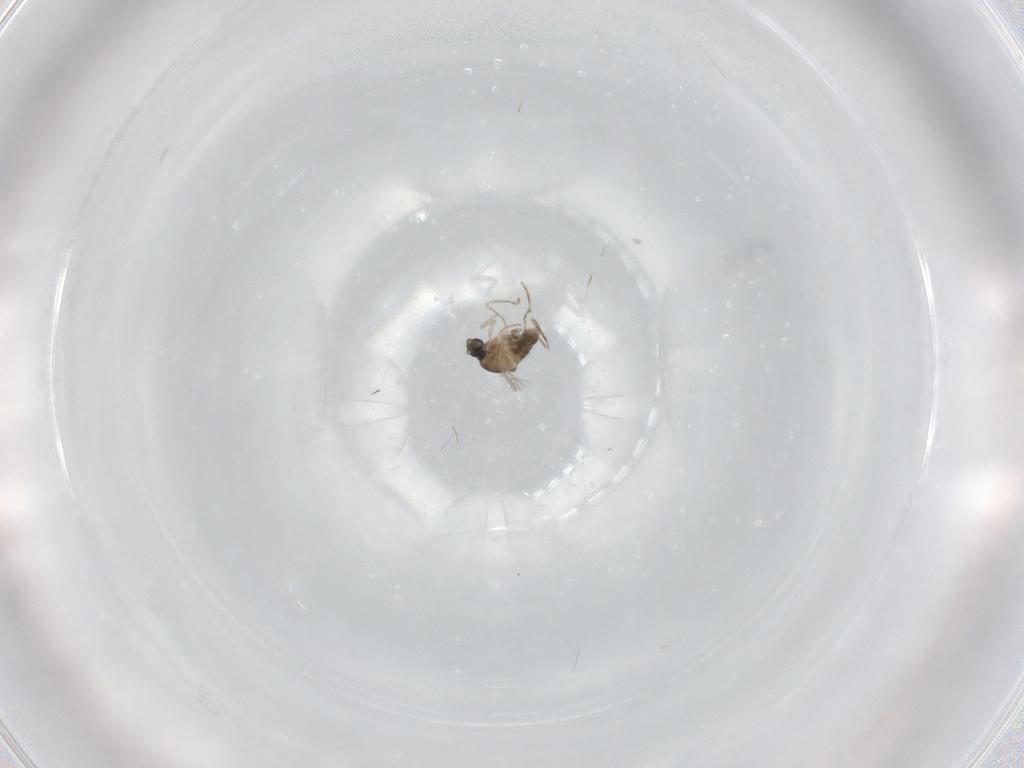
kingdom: Animalia
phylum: Arthropoda
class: Insecta
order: Diptera
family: Cecidomyiidae
